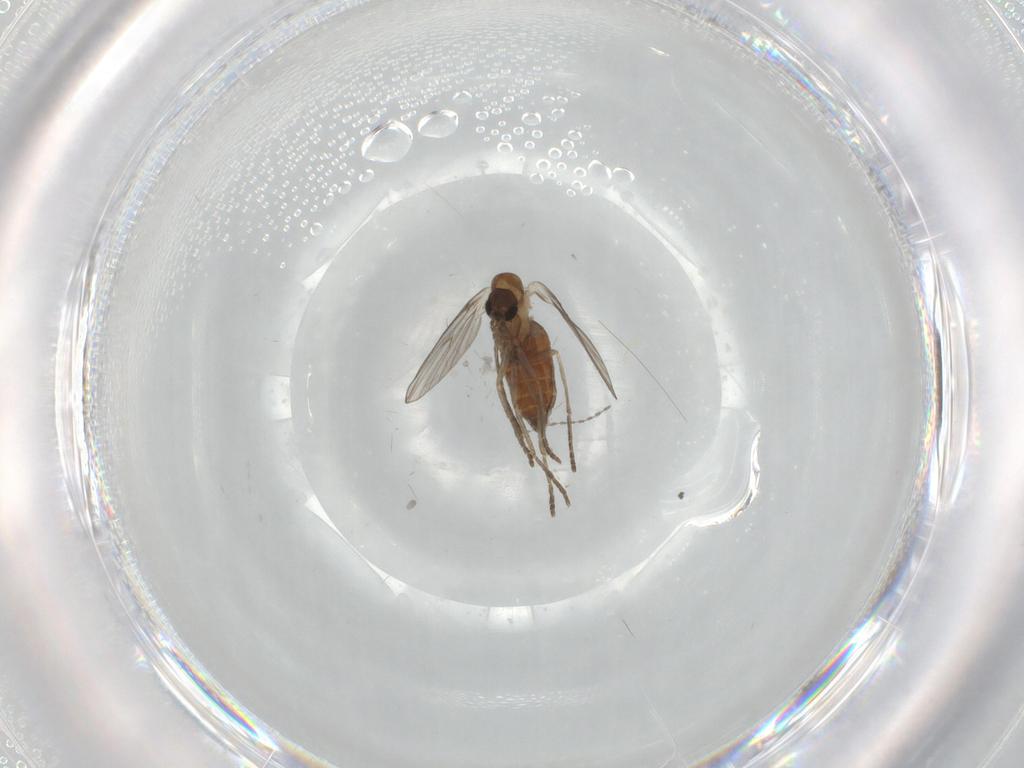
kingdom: Animalia
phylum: Arthropoda
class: Insecta
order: Diptera
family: Psychodidae
